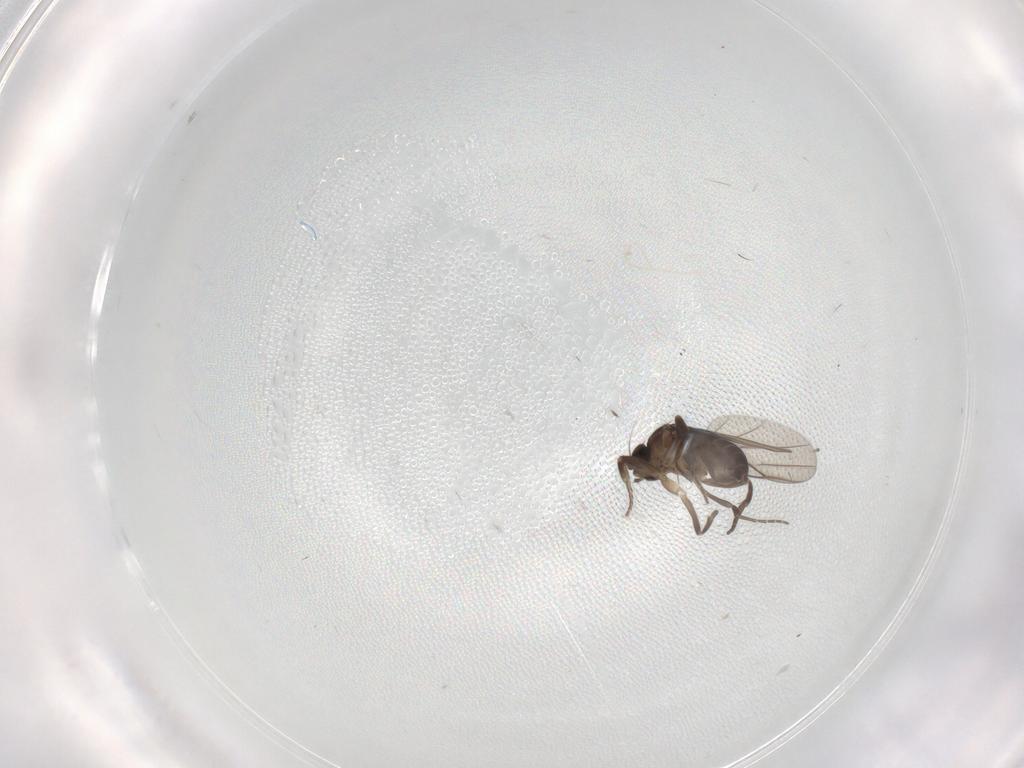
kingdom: Animalia
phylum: Arthropoda
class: Insecta
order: Diptera
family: Phoridae
